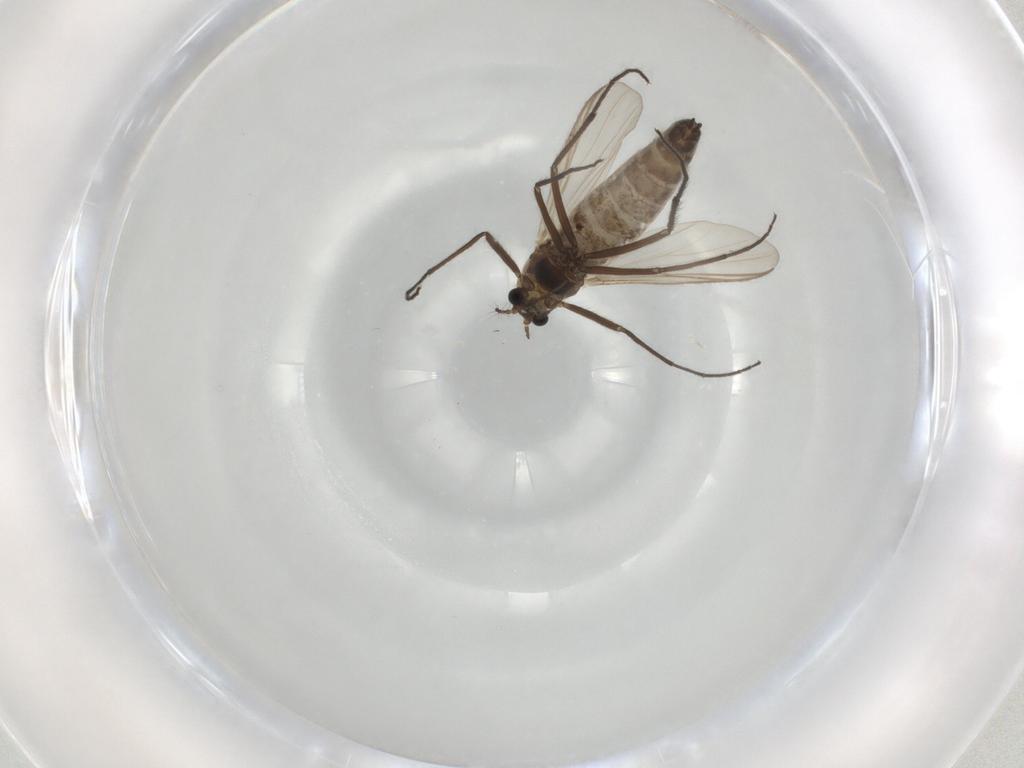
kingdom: Animalia
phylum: Arthropoda
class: Insecta
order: Diptera
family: Chironomidae
